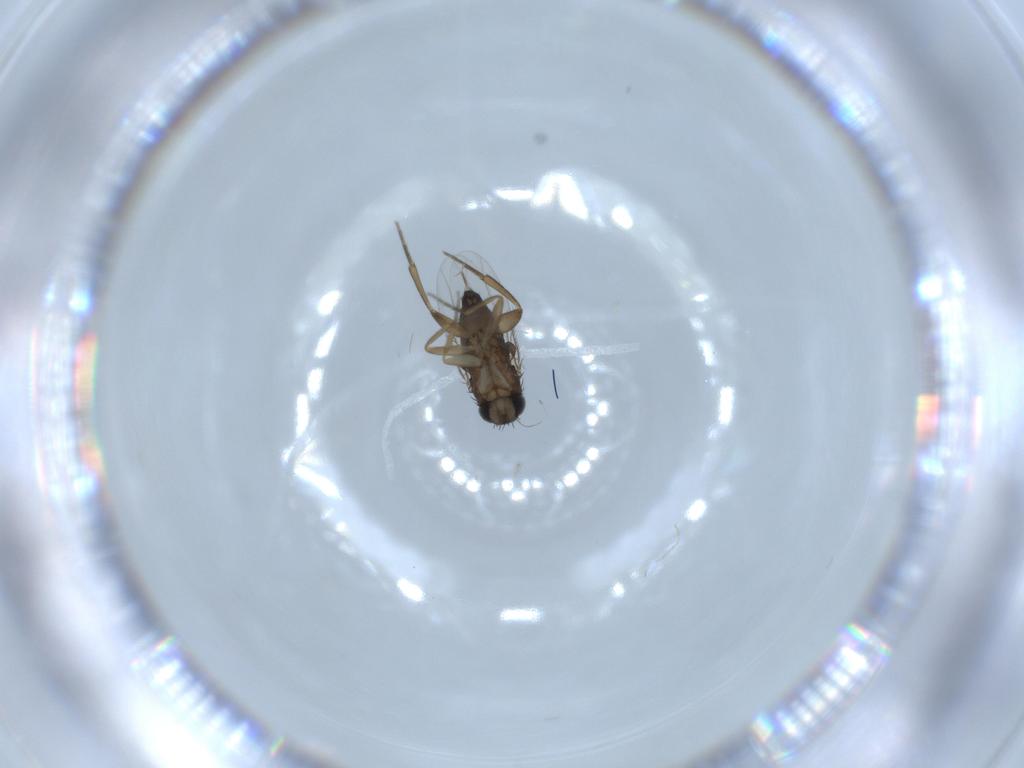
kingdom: Animalia
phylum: Arthropoda
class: Insecta
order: Diptera
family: Phoridae
